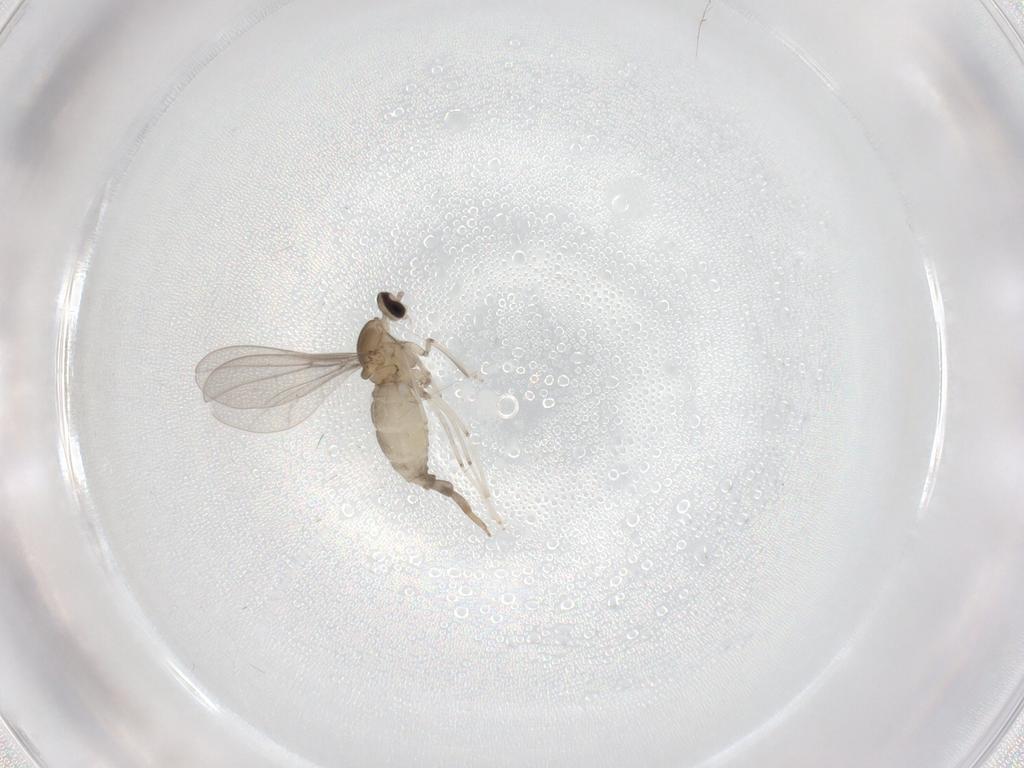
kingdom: Animalia
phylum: Arthropoda
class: Insecta
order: Diptera
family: Cecidomyiidae
